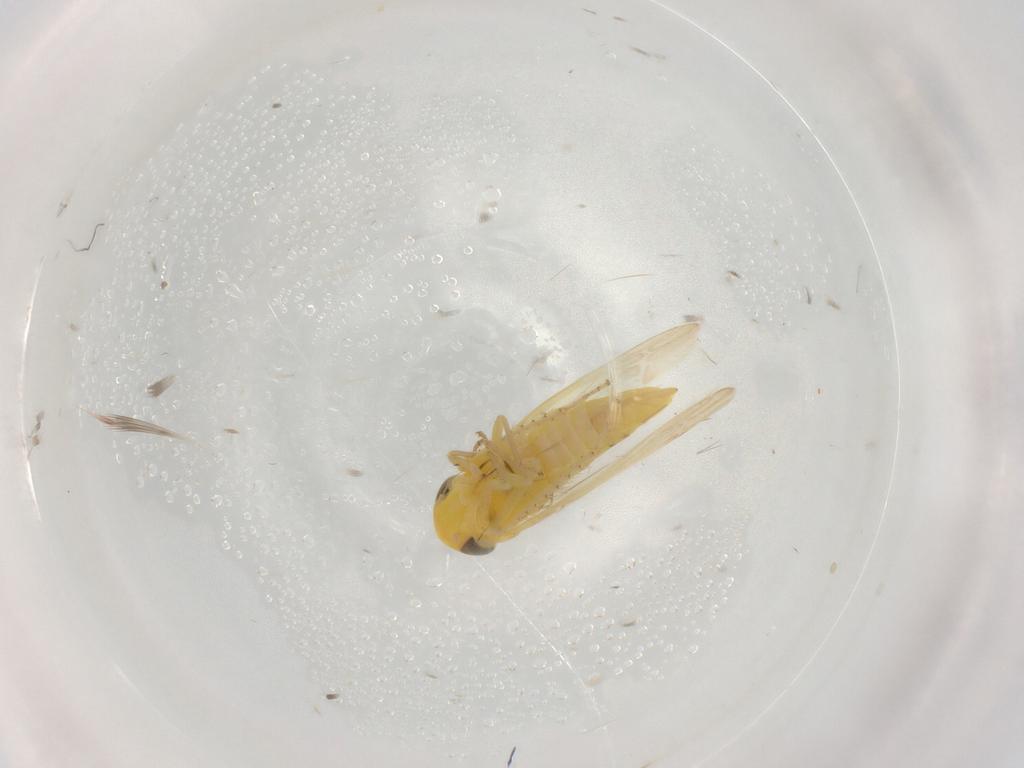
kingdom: Animalia
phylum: Arthropoda
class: Insecta
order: Hemiptera
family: Cicadellidae
